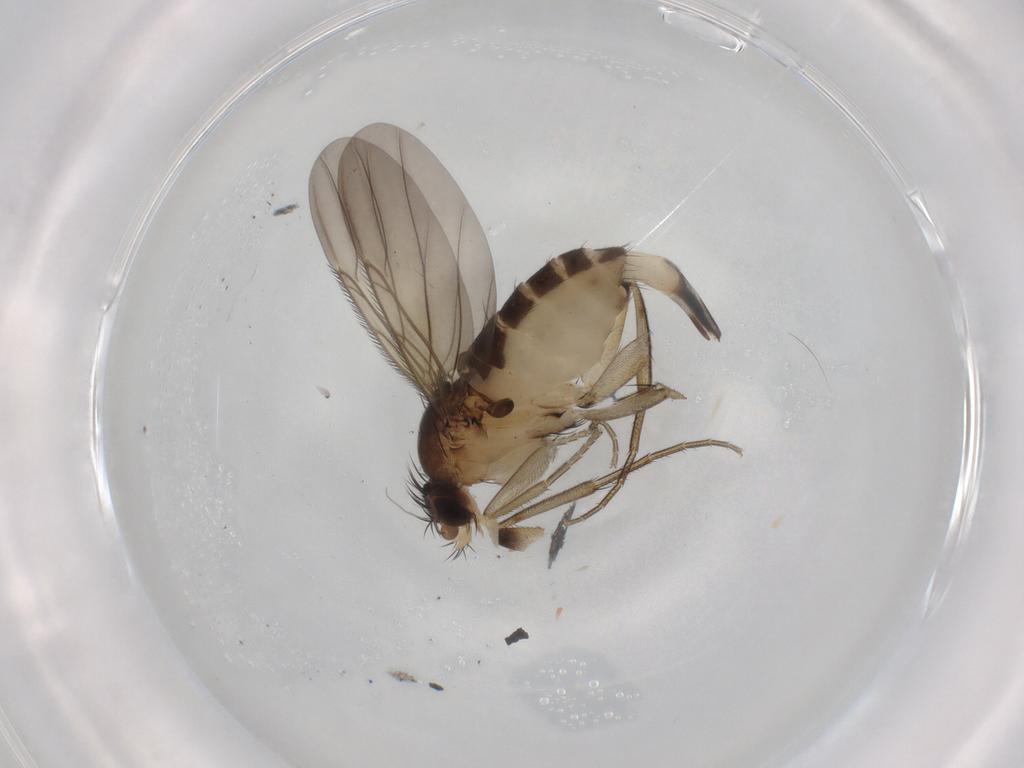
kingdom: Animalia
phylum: Arthropoda
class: Insecta
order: Diptera
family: Phoridae
